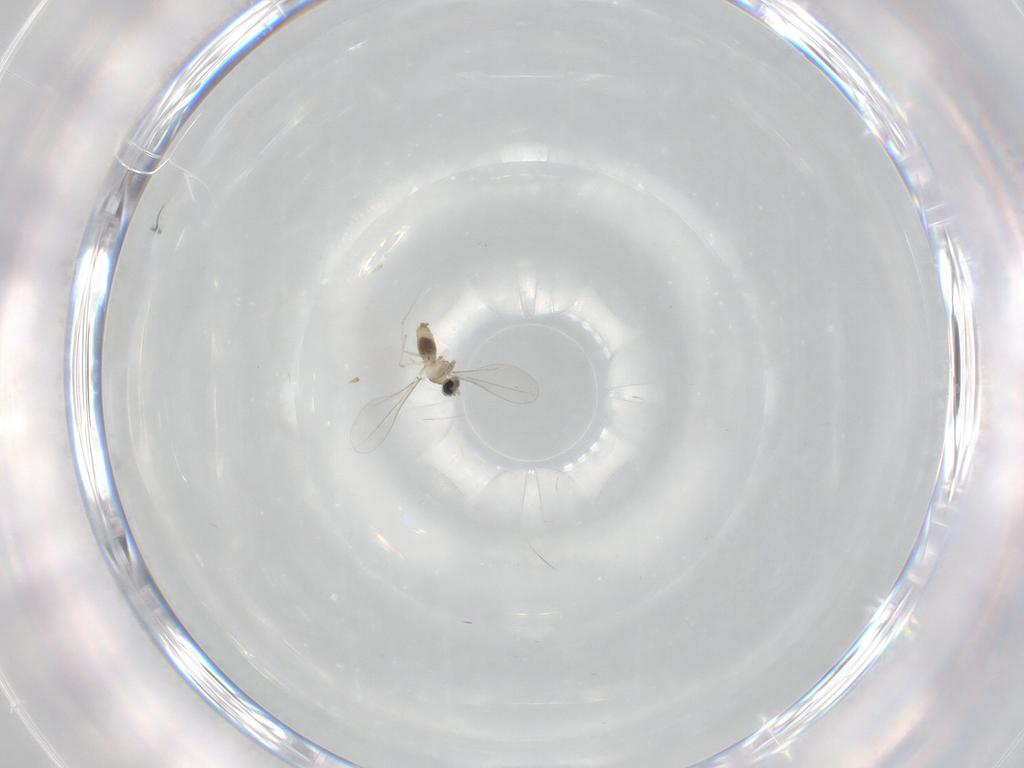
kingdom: Animalia
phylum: Arthropoda
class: Insecta
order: Diptera
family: Cecidomyiidae
